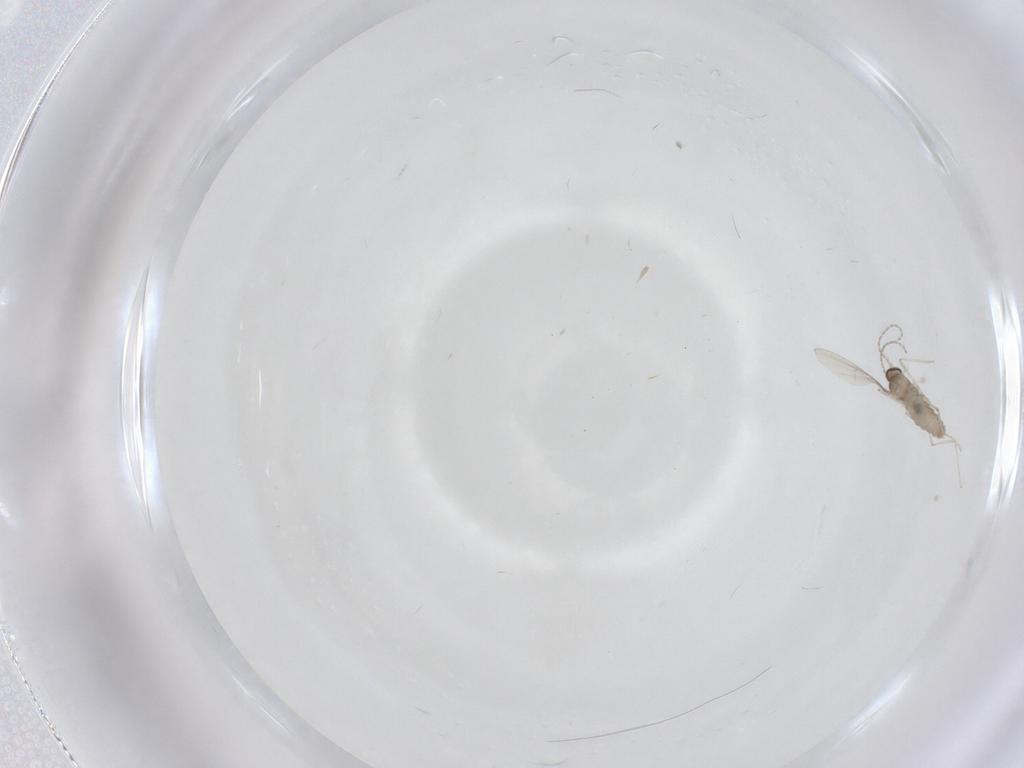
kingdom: Animalia
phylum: Arthropoda
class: Insecta
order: Diptera
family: Cecidomyiidae
